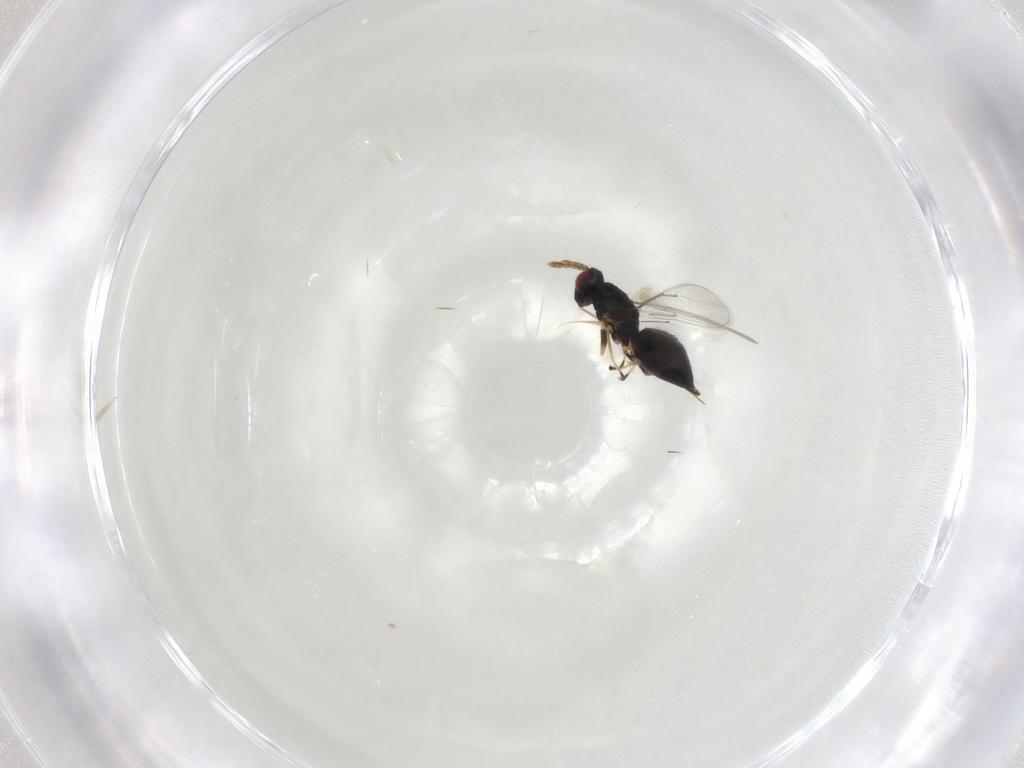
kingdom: Animalia
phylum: Arthropoda
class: Insecta
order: Hymenoptera
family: Eulophidae
